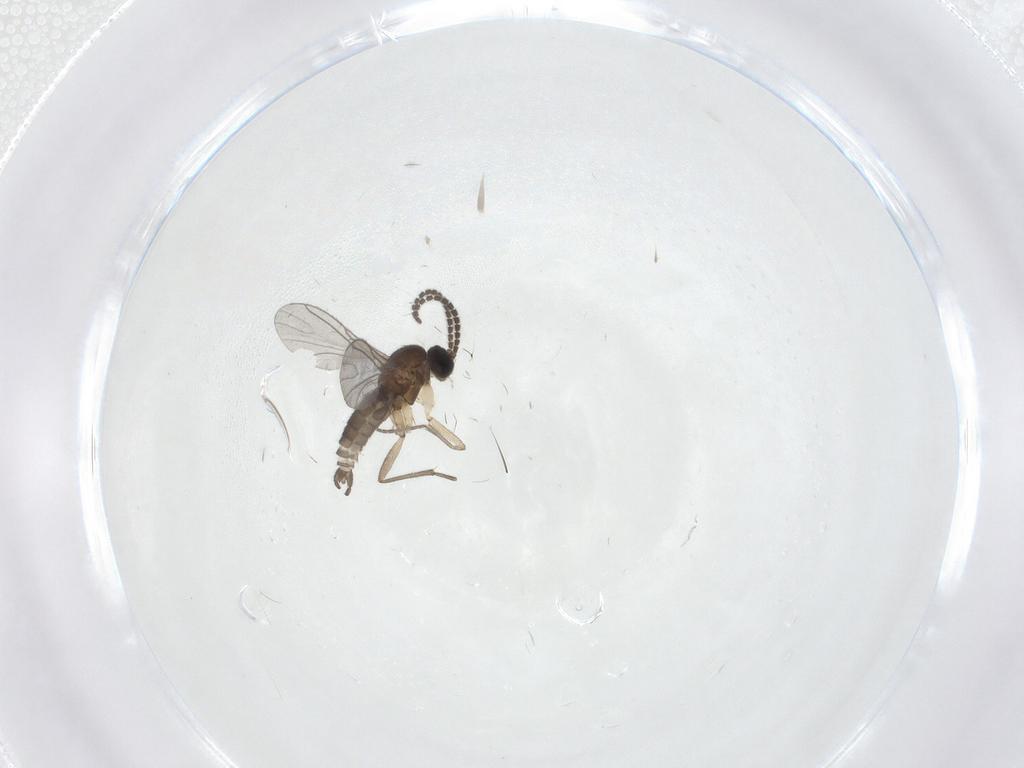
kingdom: Animalia
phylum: Arthropoda
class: Insecta
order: Diptera
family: Sciaridae
